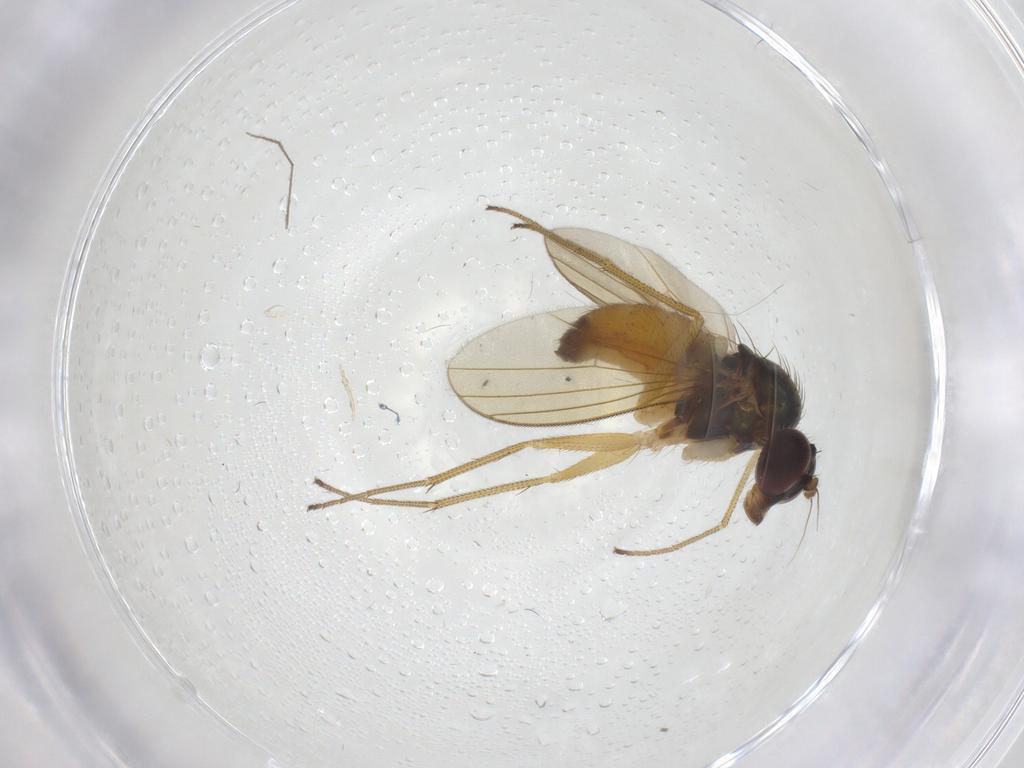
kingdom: Animalia
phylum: Arthropoda
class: Insecta
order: Diptera
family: Dolichopodidae
